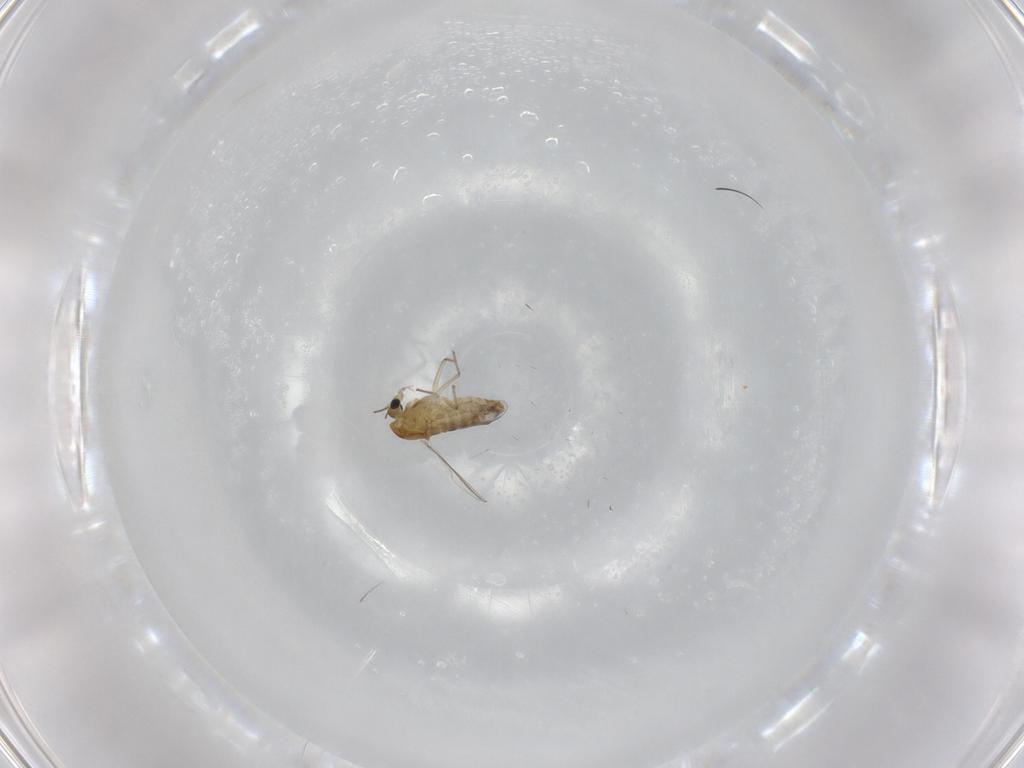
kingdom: Animalia
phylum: Arthropoda
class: Insecta
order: Diptera
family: Chironomidae
